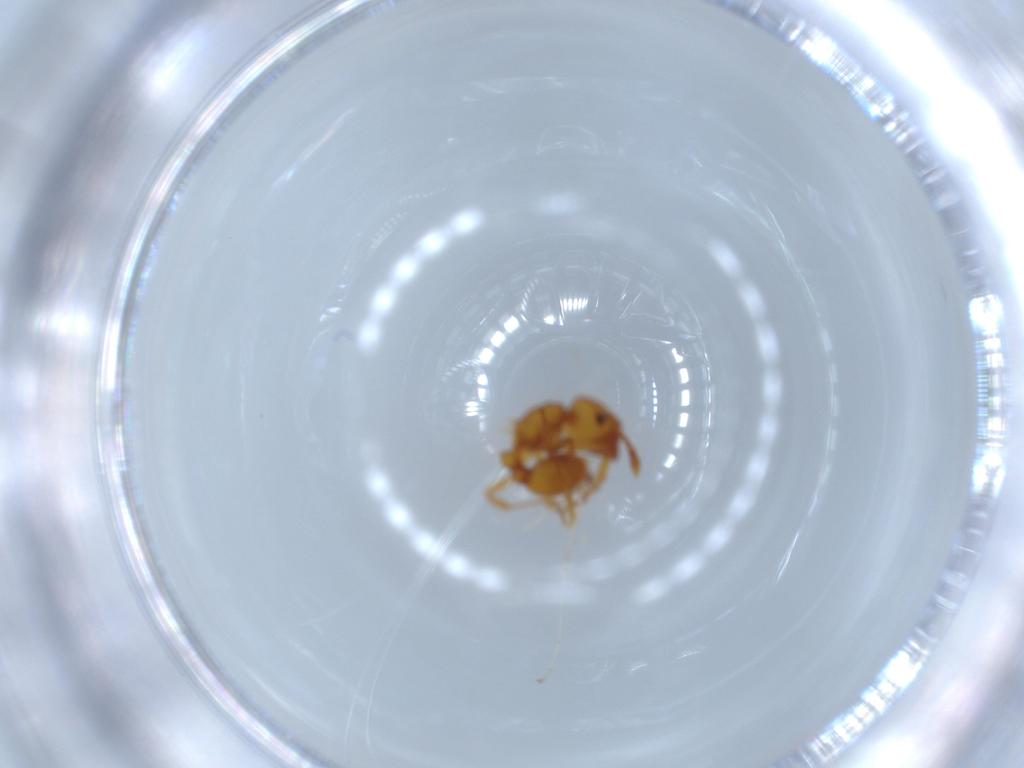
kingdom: Animalia
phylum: Arthropoda
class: Insecta
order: Hymenoptera
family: Formicidae
